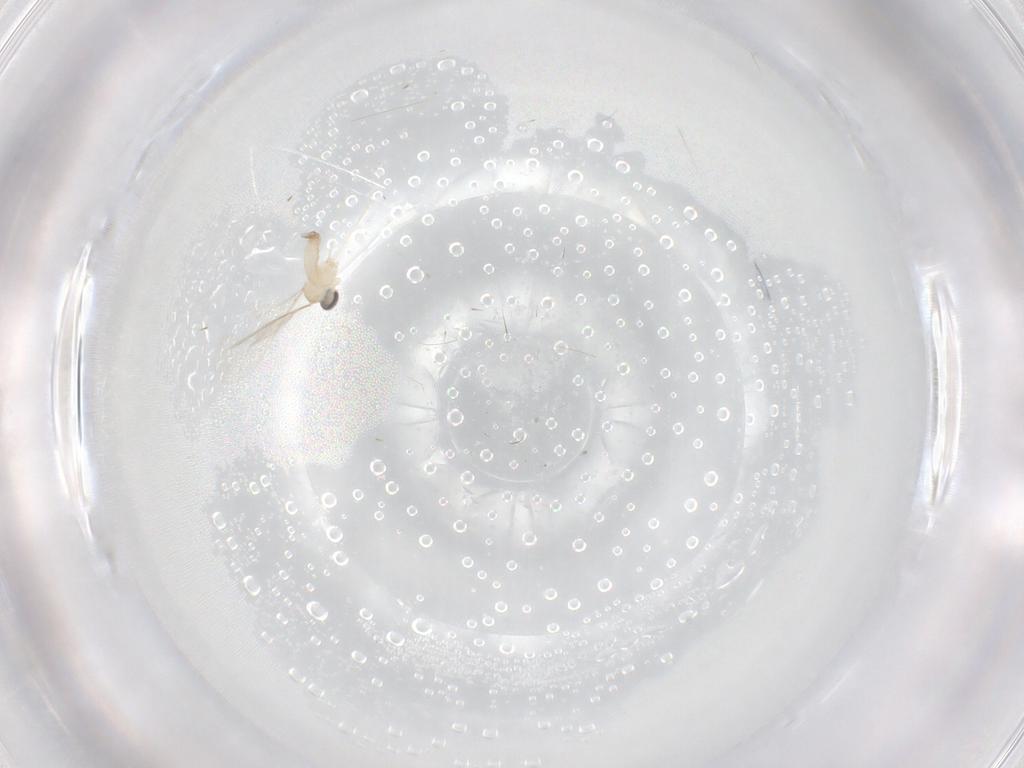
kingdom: Animalia
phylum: Arthropoda
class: Insecta
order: Diptera
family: Cecidomyiidae
